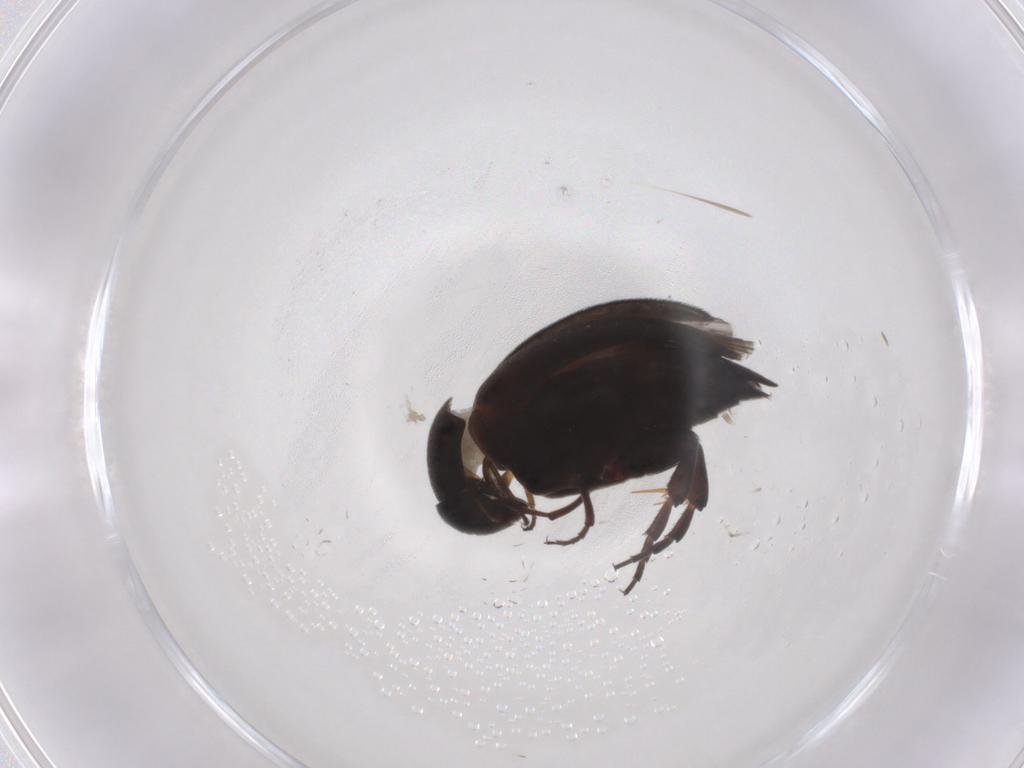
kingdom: Animalia
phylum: Arthropoda
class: Insecta
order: Coleoptera
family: Mordellidae
